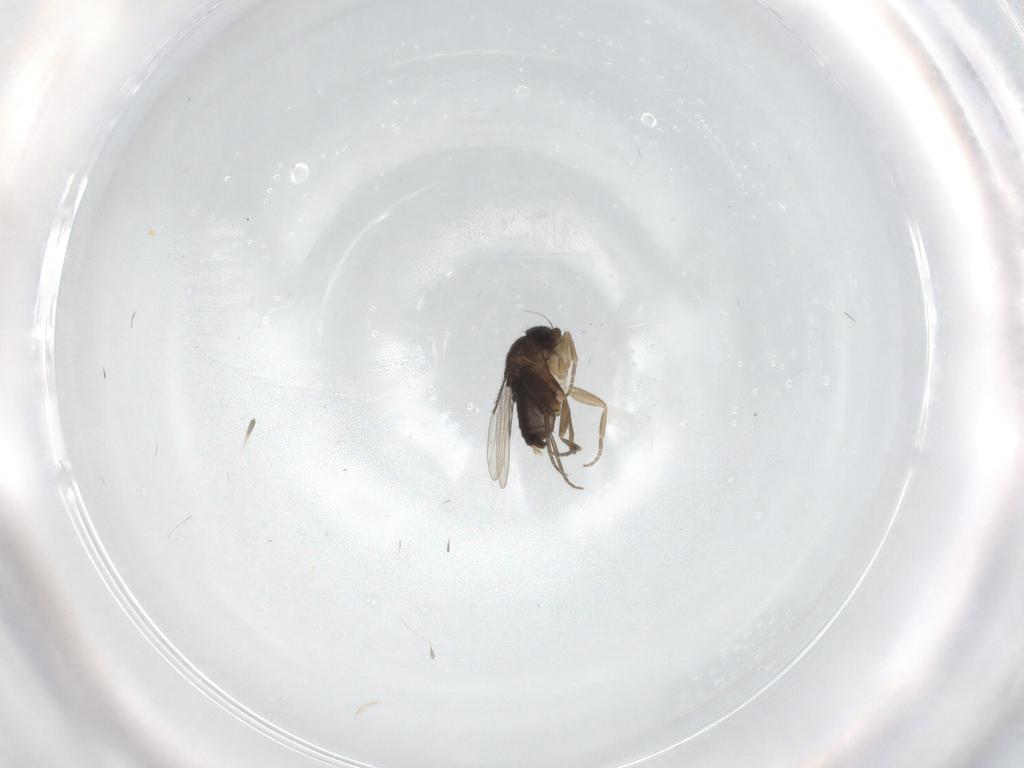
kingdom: Animalia
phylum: Arthropoda
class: Insecta
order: Diptera
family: Phoridae
